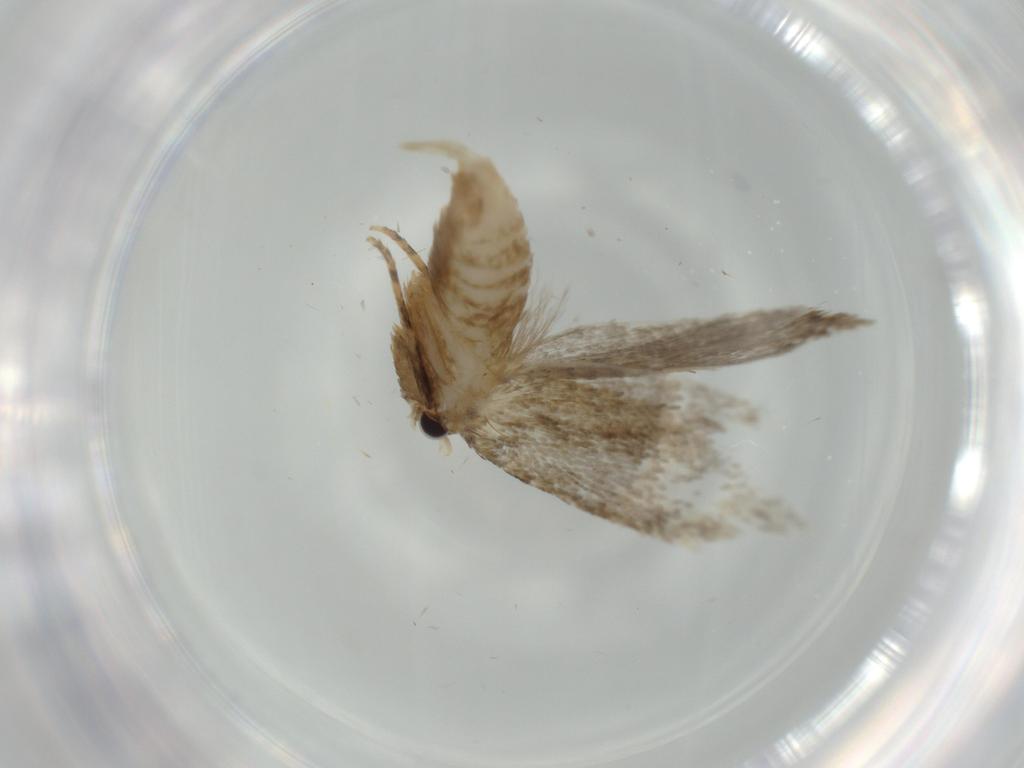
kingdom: Animalia
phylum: Arthropoda
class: Insecta
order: Lepidoptera
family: Tineidae
